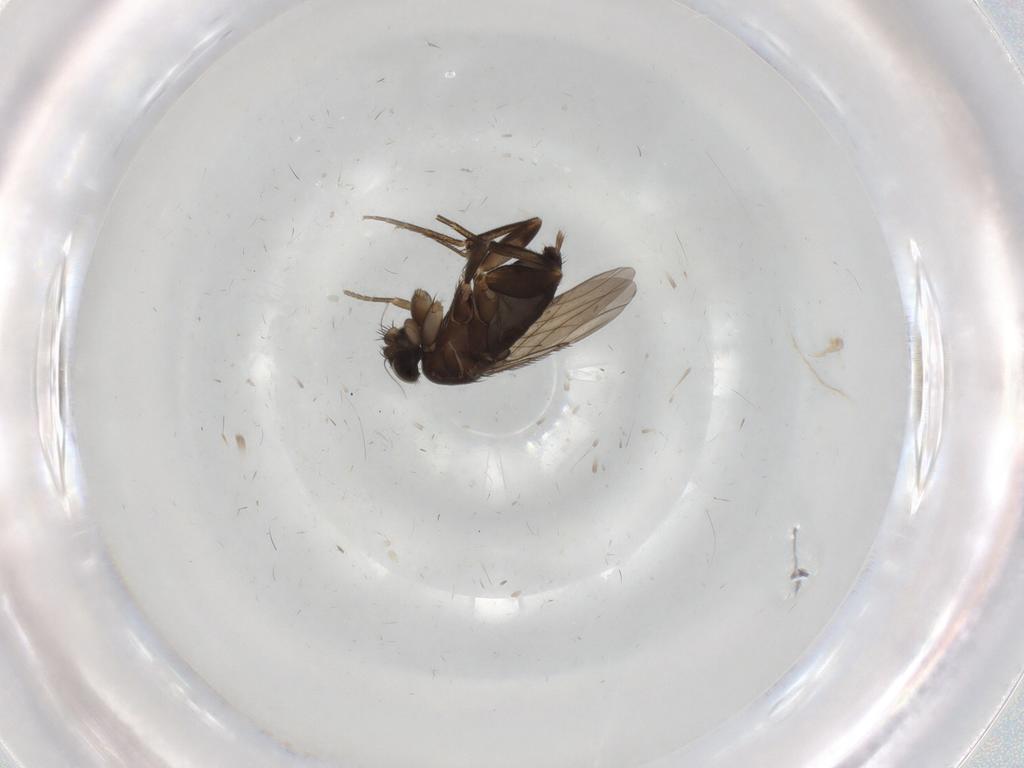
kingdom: Animalia
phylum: Arthropoda
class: Insecta
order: Diptera
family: Phoridae
